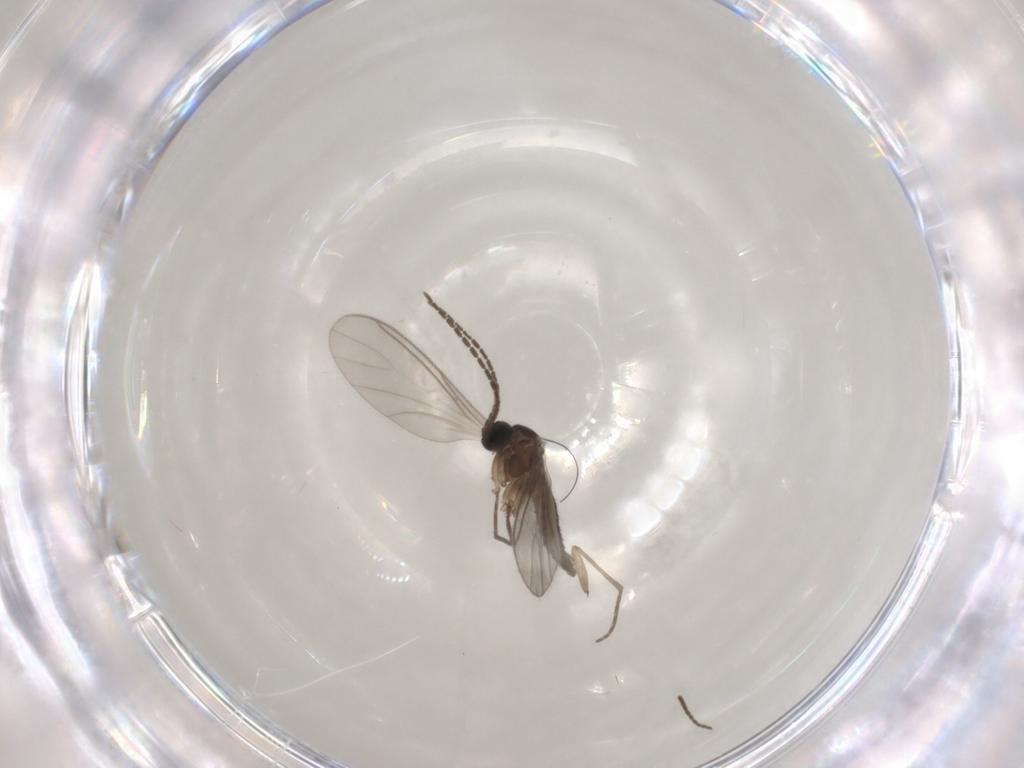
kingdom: Animalia
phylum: Arthropoda
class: Insecta
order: Diptera
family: Sciaridae
